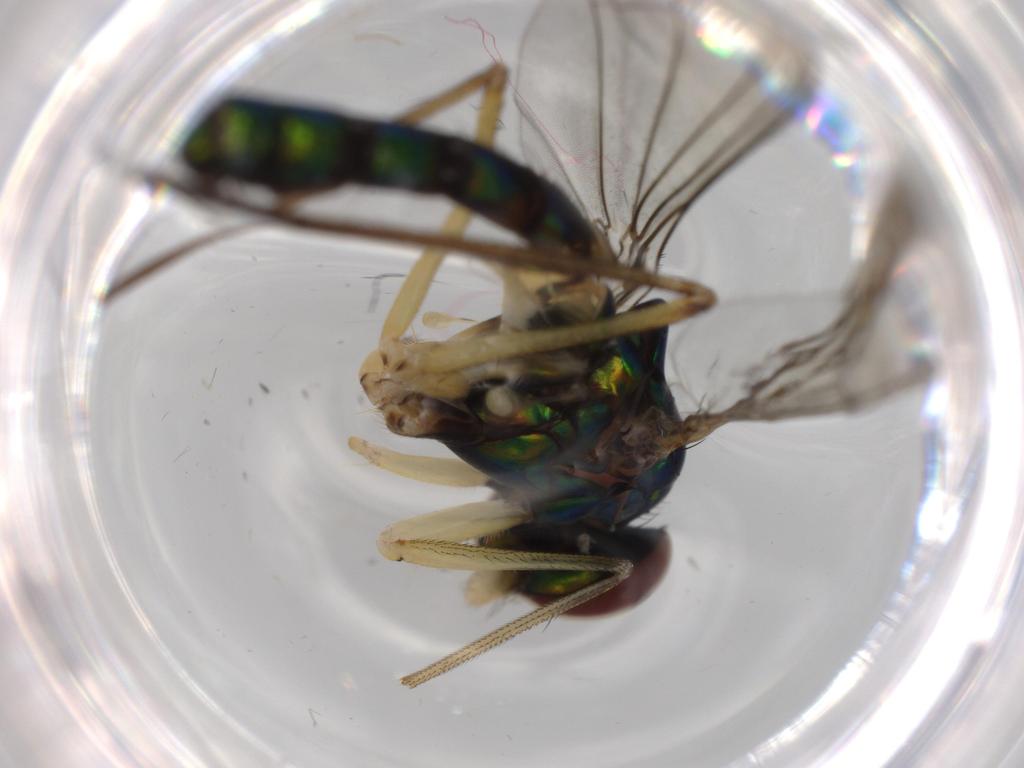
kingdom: Animalia
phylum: Arthropoda
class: Insecta
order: Diptera
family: Dolichopodidae
